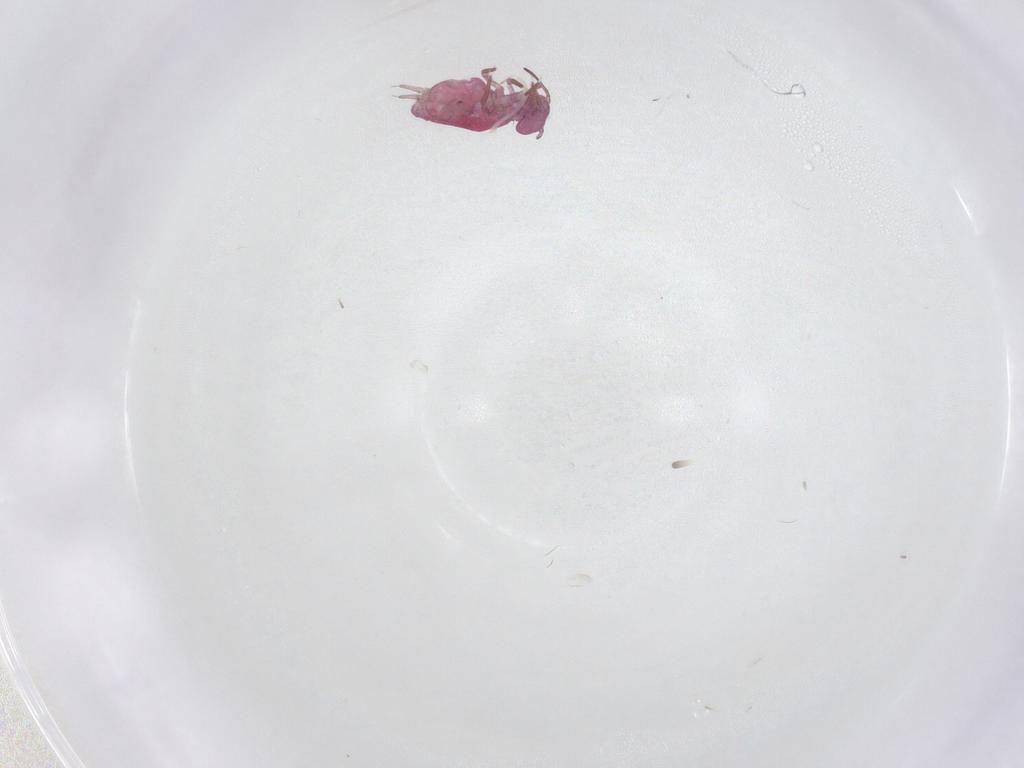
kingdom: Animalia
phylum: Arthropoda
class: Collembola
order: Symphypleona
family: Sminthuridae
